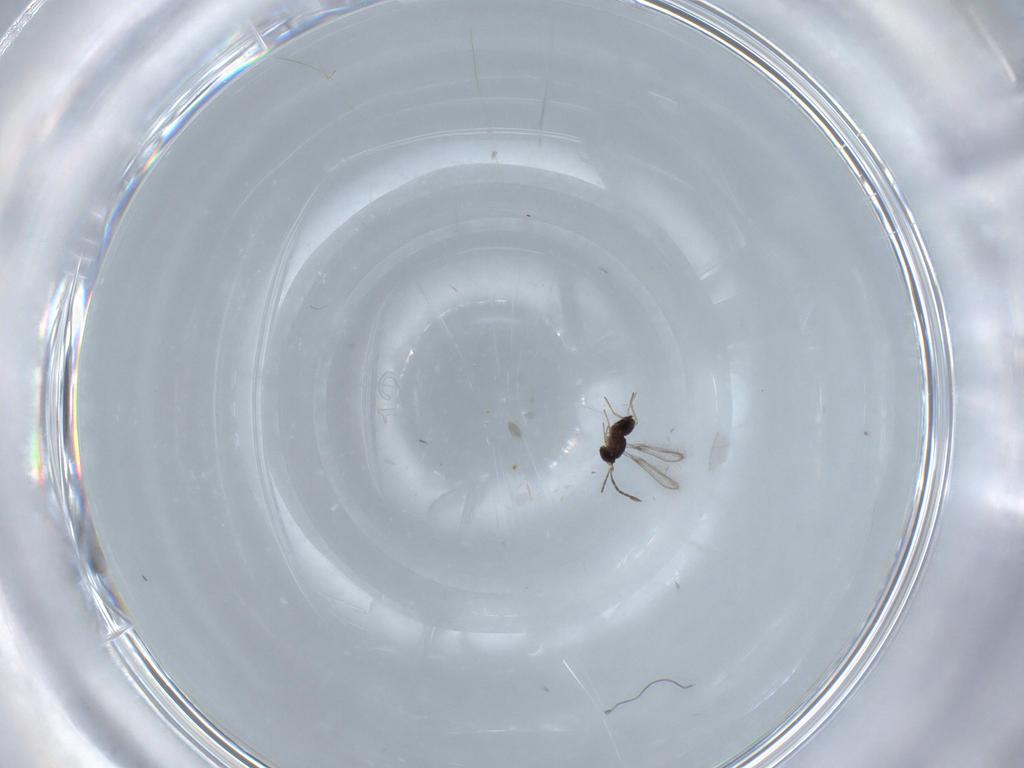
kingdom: Animalia
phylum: Arthropoda
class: Insecta
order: Hymenoptera
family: Mymaridae
